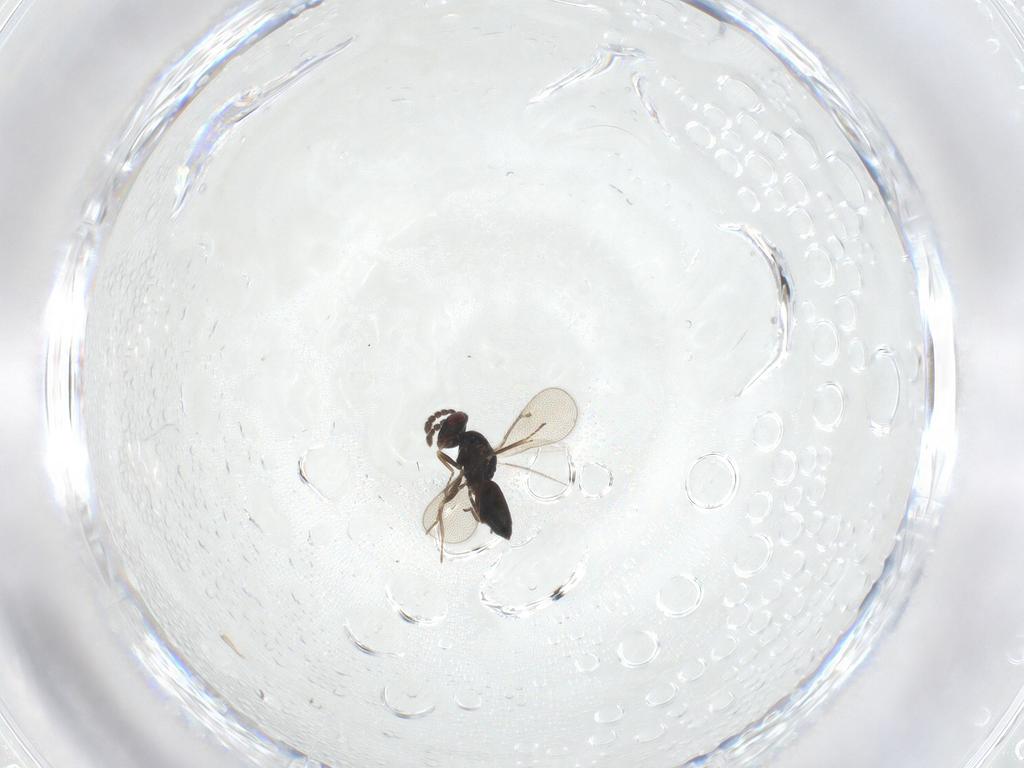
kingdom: Animalia
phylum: Arthropoda
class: Insecta
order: Hymenoptera
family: Eulophidae
